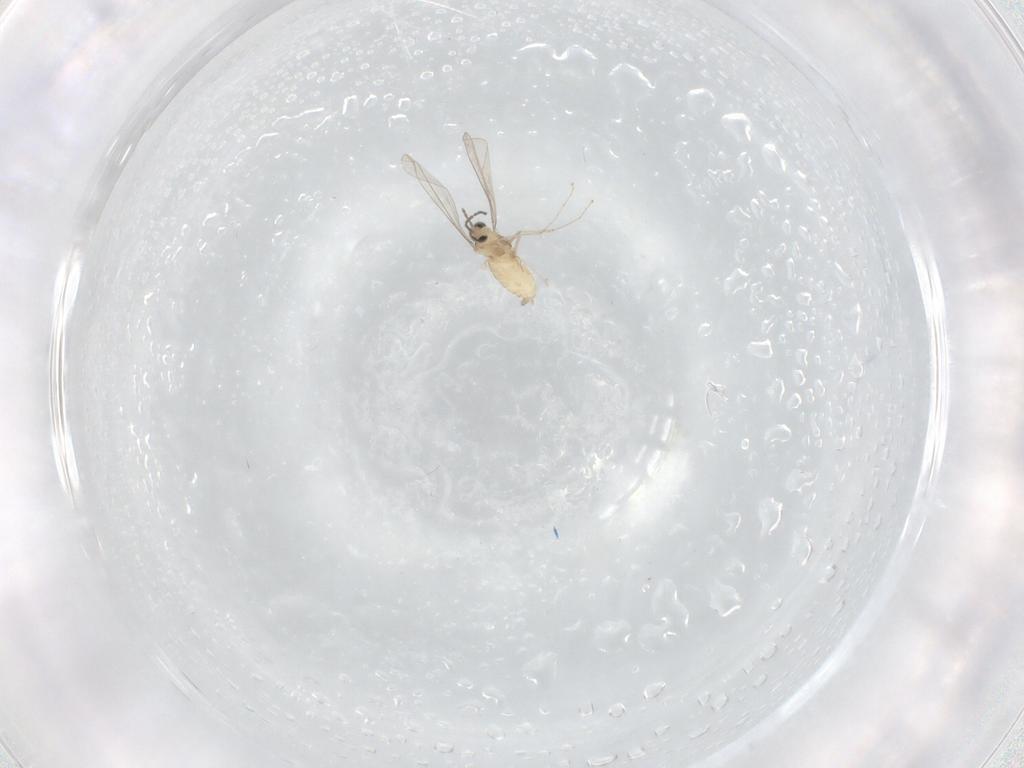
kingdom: Animalia
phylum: Arthropoda
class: Insecta
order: Diptera
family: Cecidomyiidae
